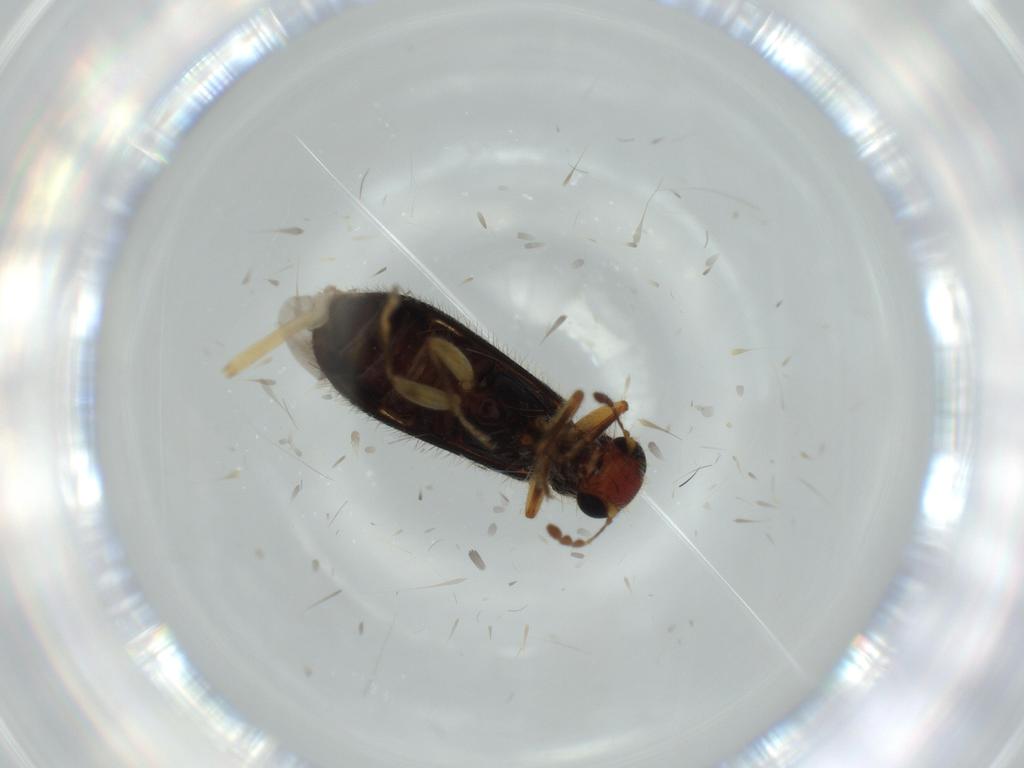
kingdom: Animalia
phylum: Arthropoda
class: Insecta
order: Coleoptera
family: Cleridae
